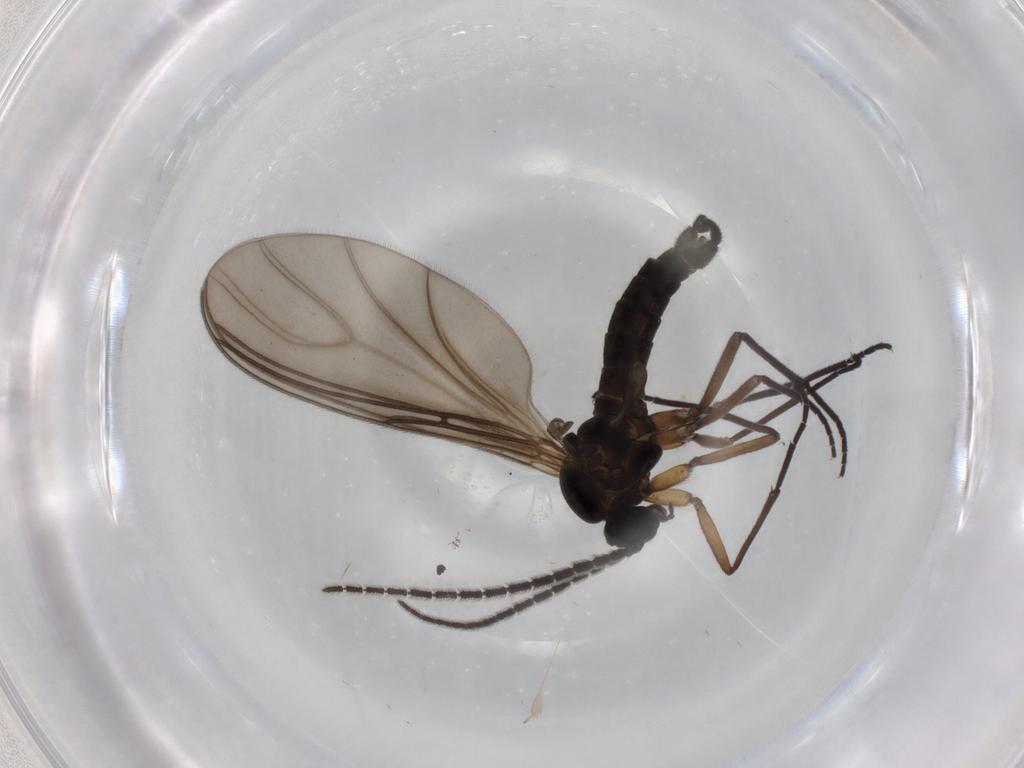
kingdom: Animalia
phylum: Arthropoda
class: Insecta
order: Diptera
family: Sciaridae
